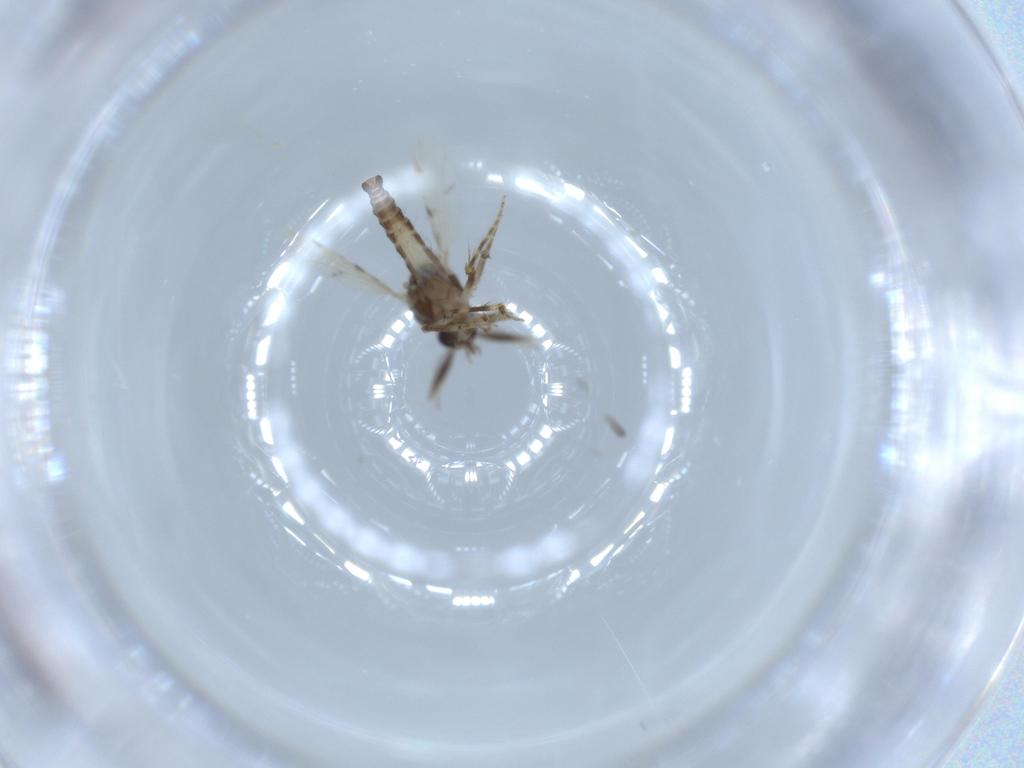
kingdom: Animalia
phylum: Arthropoda
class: Insecta
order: Diptera
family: Ceratopogonidae
